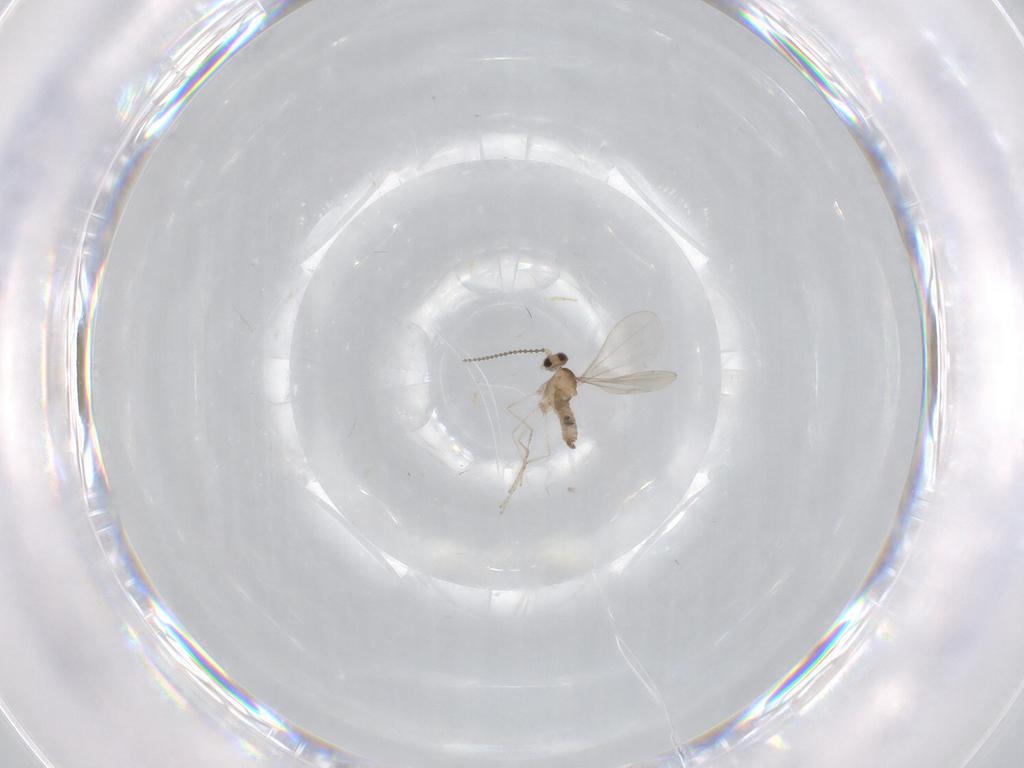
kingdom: Animalia
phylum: Arthropoda
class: Insecta
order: Diptera
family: Cecidomyiidae
